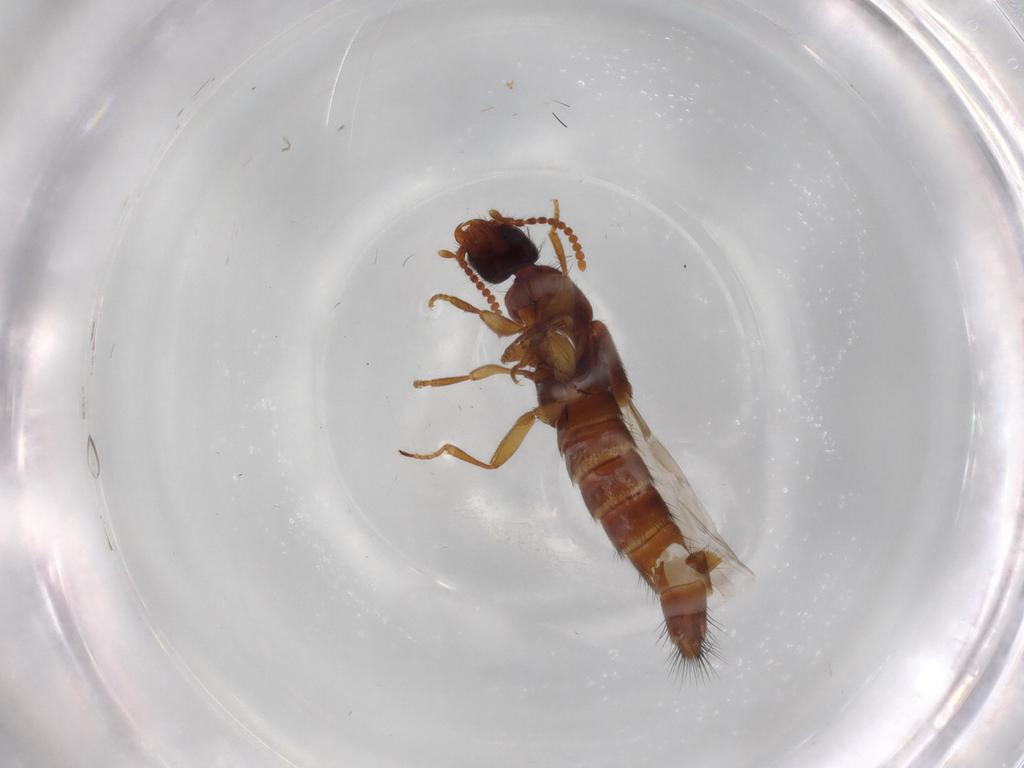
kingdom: Animalia
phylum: Arthropoda
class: Insecta
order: Coleoptera
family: Staphylinidae
